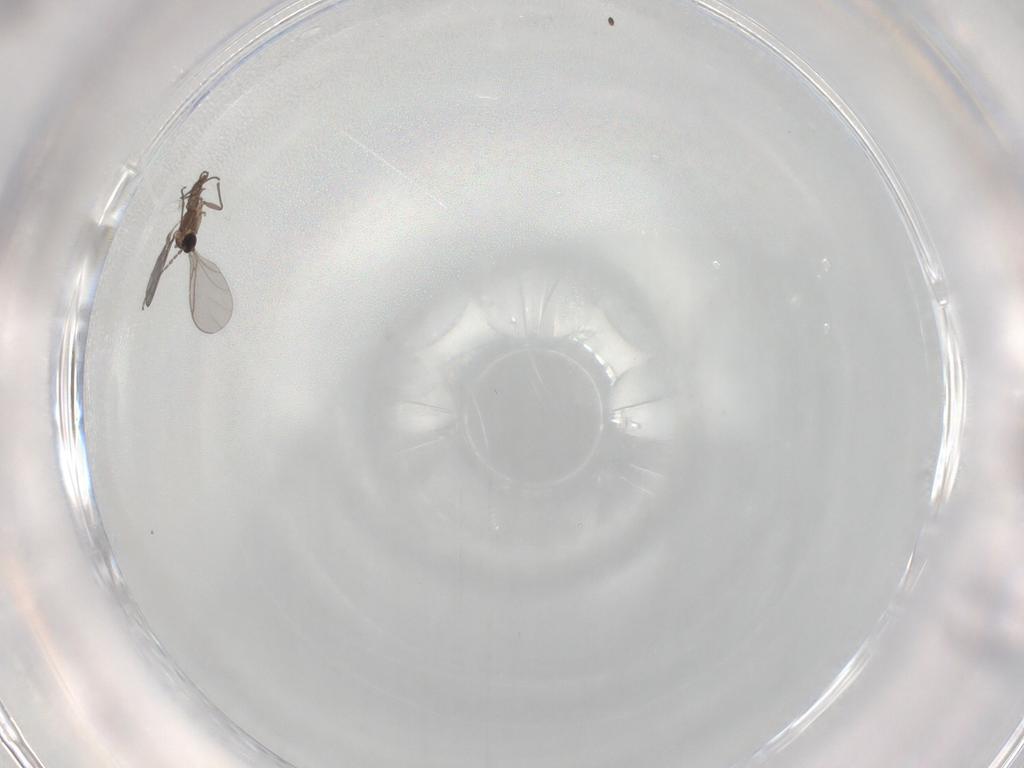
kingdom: Animalia
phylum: Arthropoda
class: Insecta
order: Diptera
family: Sciaridae
